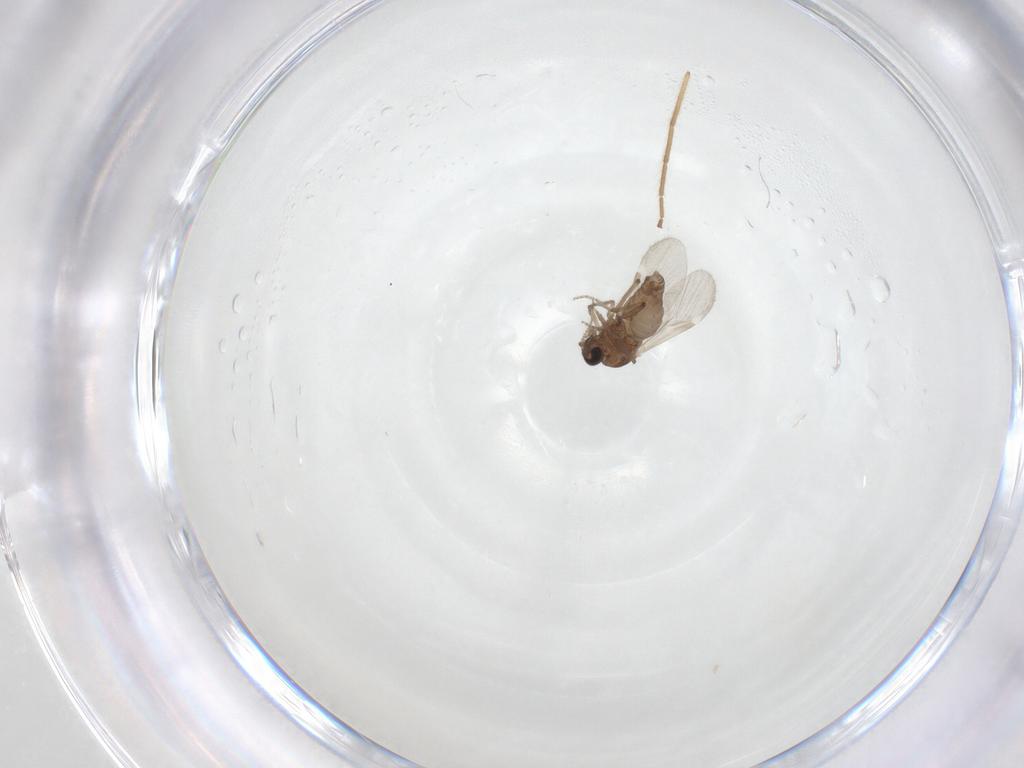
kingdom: Animalia
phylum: Arthropoda
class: Insecta
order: Diptera
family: Chironomidae
